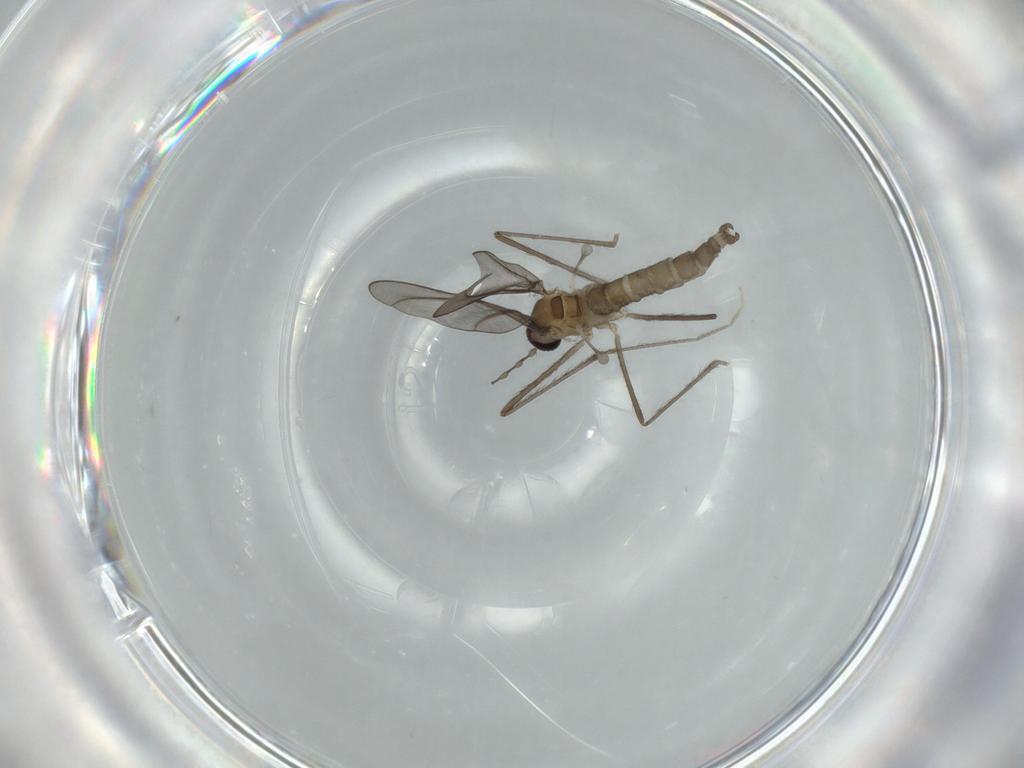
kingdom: Animalia
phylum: Arthropoda
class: Insecta
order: Diptera
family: Cecidomyiidae
